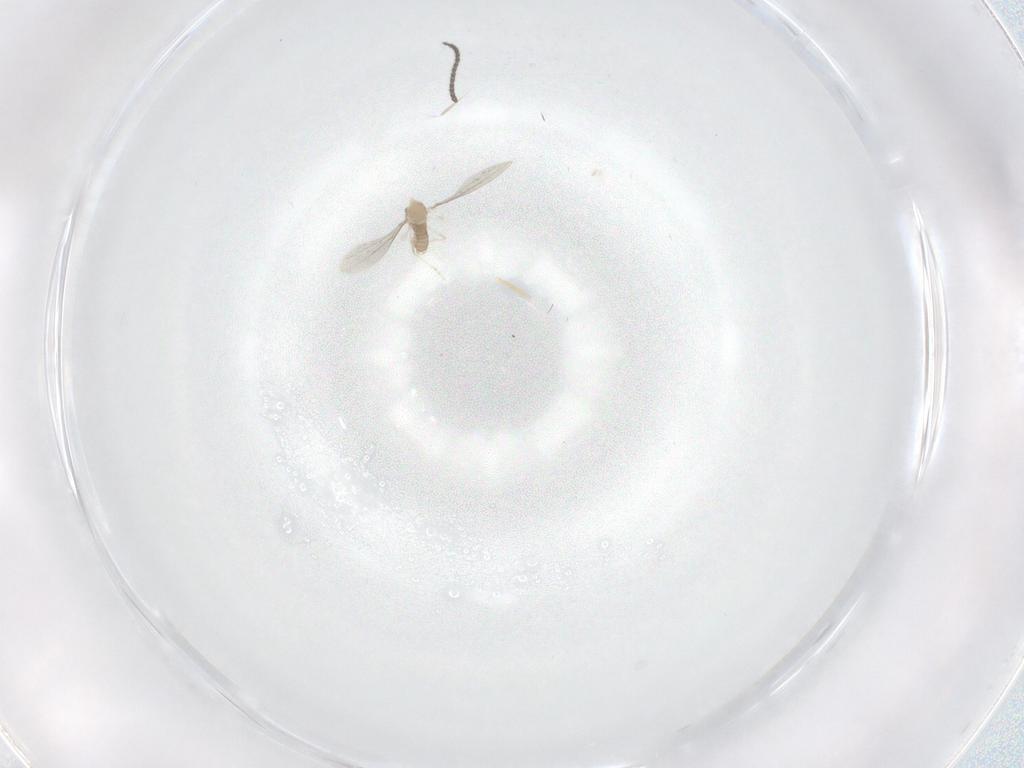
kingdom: Animalia
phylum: Arthropoda
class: Insecta
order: Diptera
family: Sciaridae
